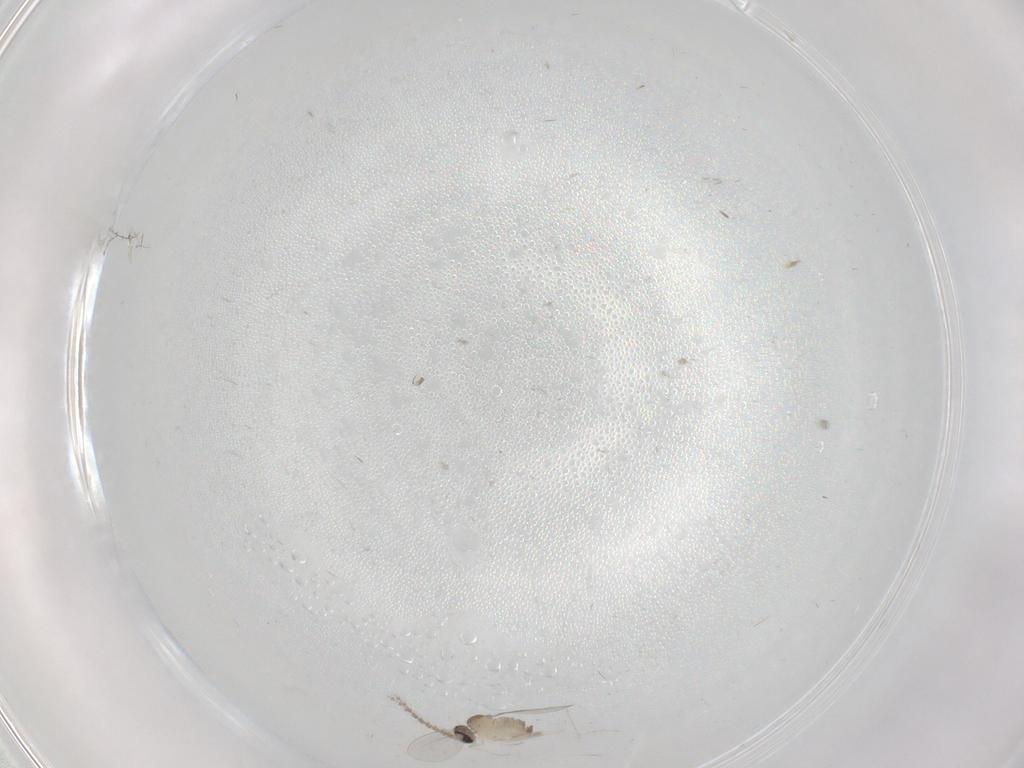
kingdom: Animalia
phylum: Arthropoda
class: Insecta
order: Diptera
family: Cecidomyiidae
